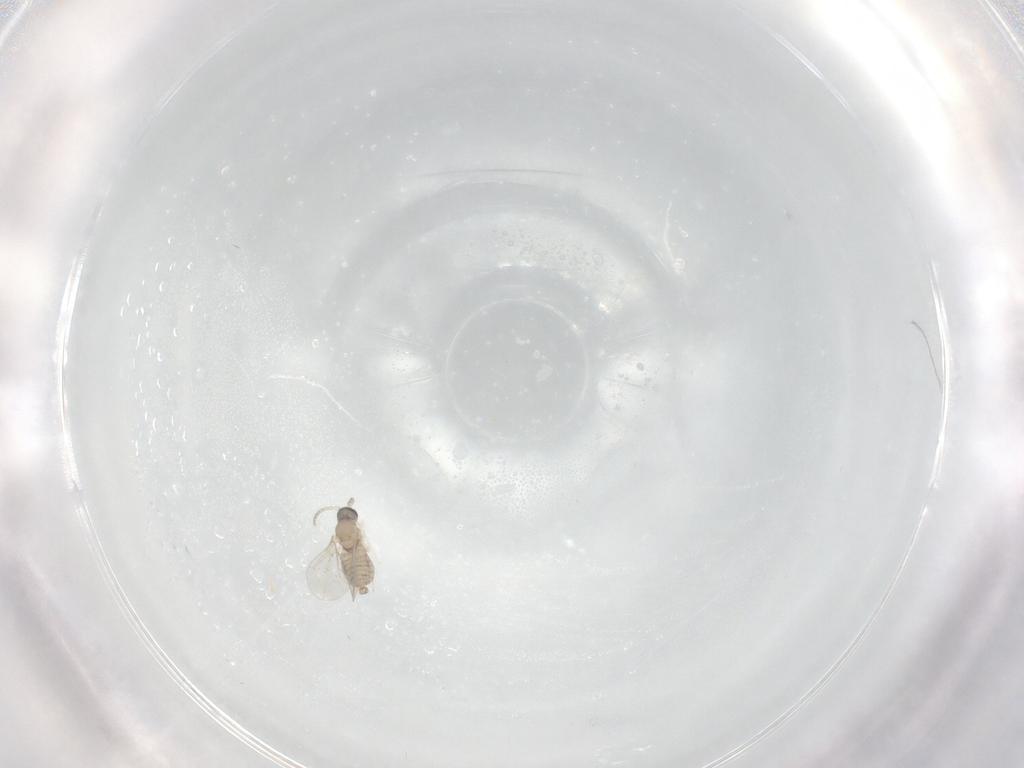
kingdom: Animalia
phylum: Arthropoda
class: Insecta
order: Diptera
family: Cecidomyiidae
